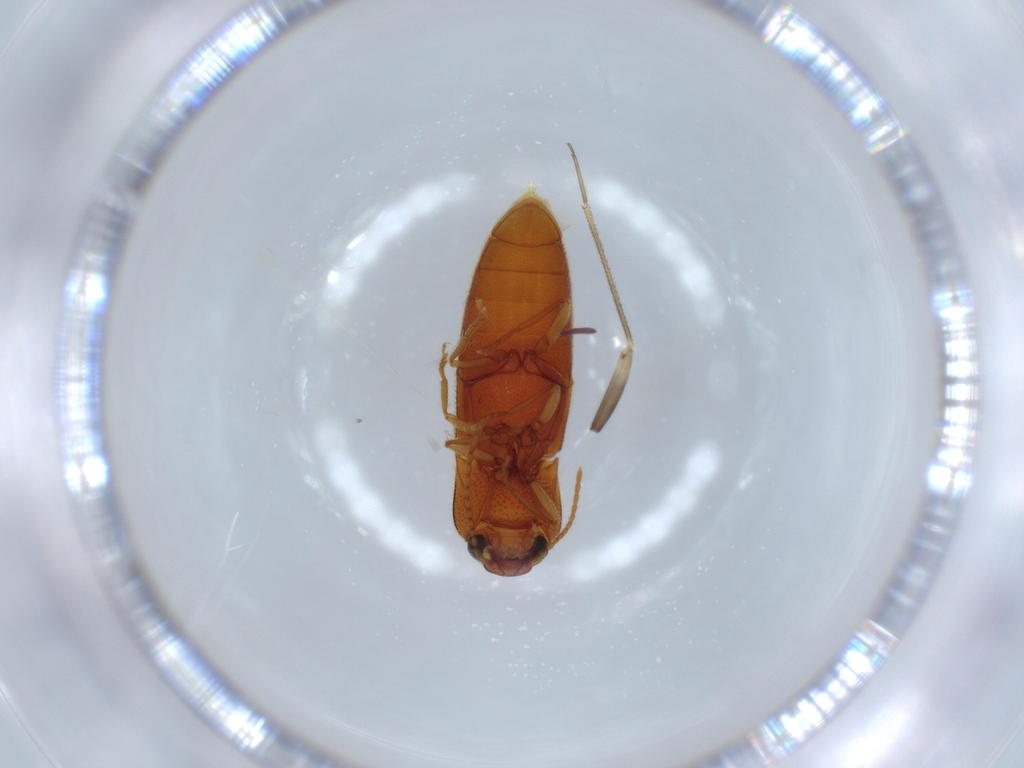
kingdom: Animalia
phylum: Arthropoda
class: Insecta
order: Coleoptera
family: Elateridae
